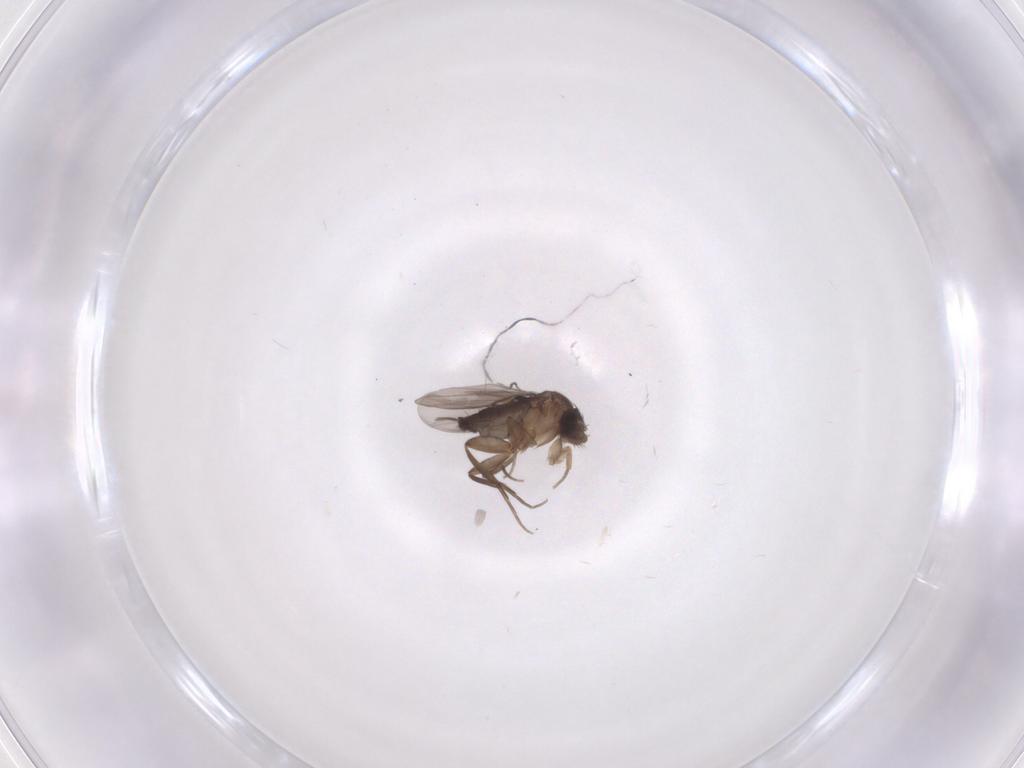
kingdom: Animalia
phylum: Arthropoda
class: Insecta
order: Diptera
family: Phoridae
